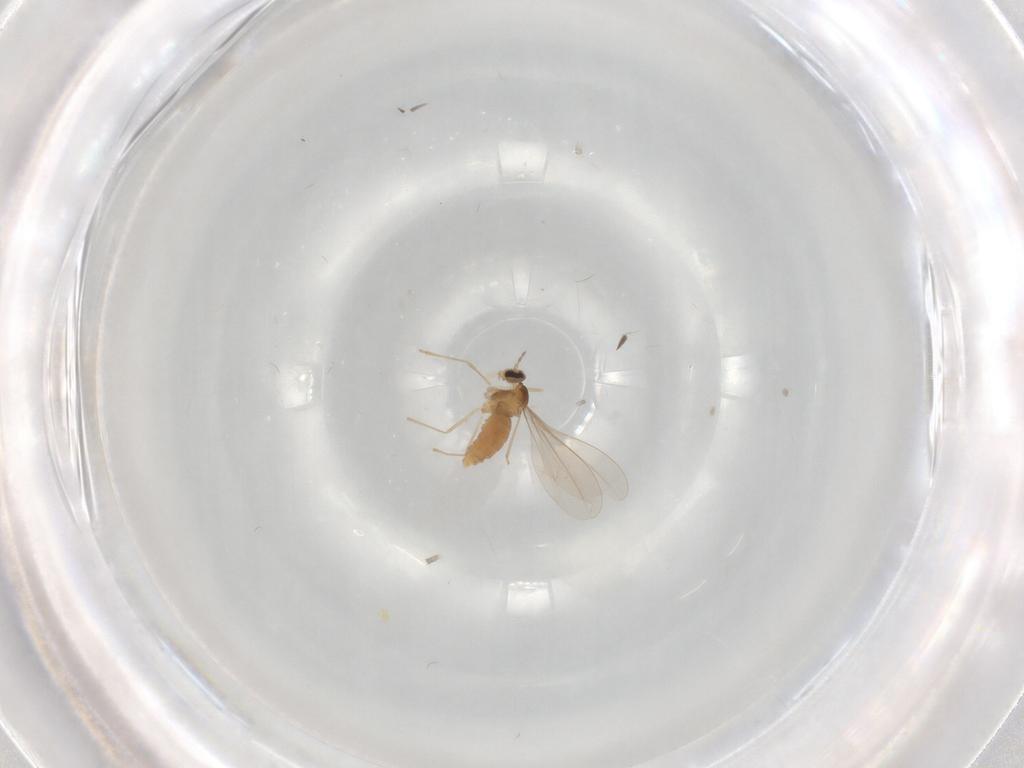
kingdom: Animalia
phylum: Arthropoda
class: Insecta
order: Diptera
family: Cecidomyiidae
